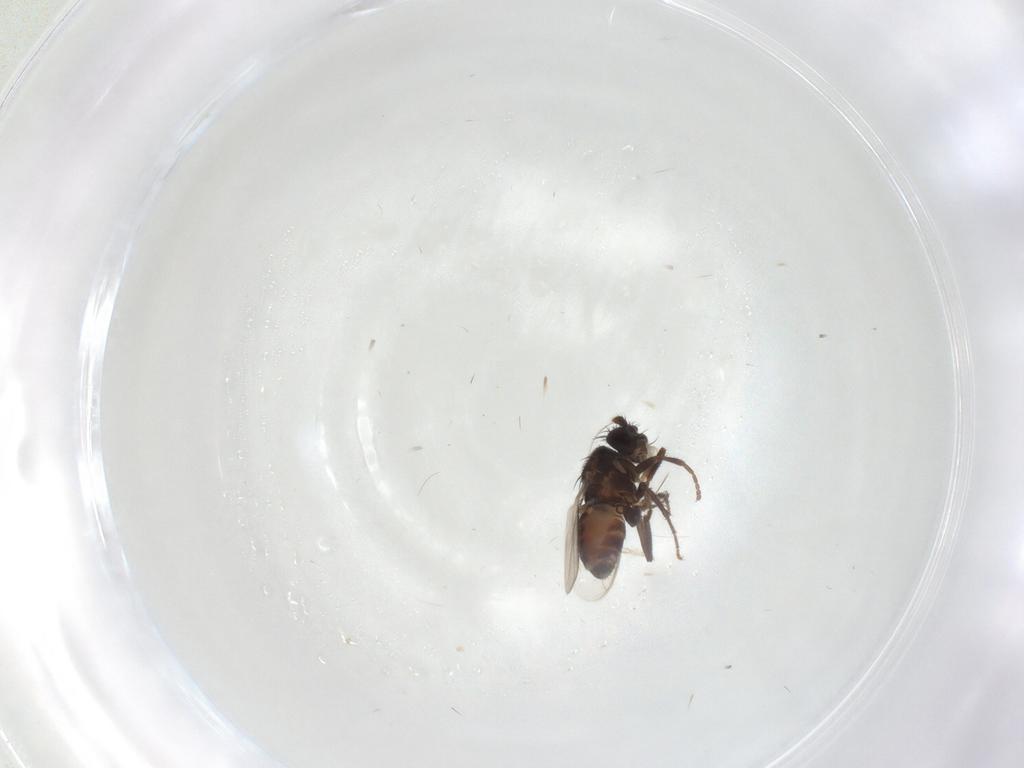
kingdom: Animalia
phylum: Arthropoda
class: Insecta
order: Diptera
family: Sphaeroceridae
